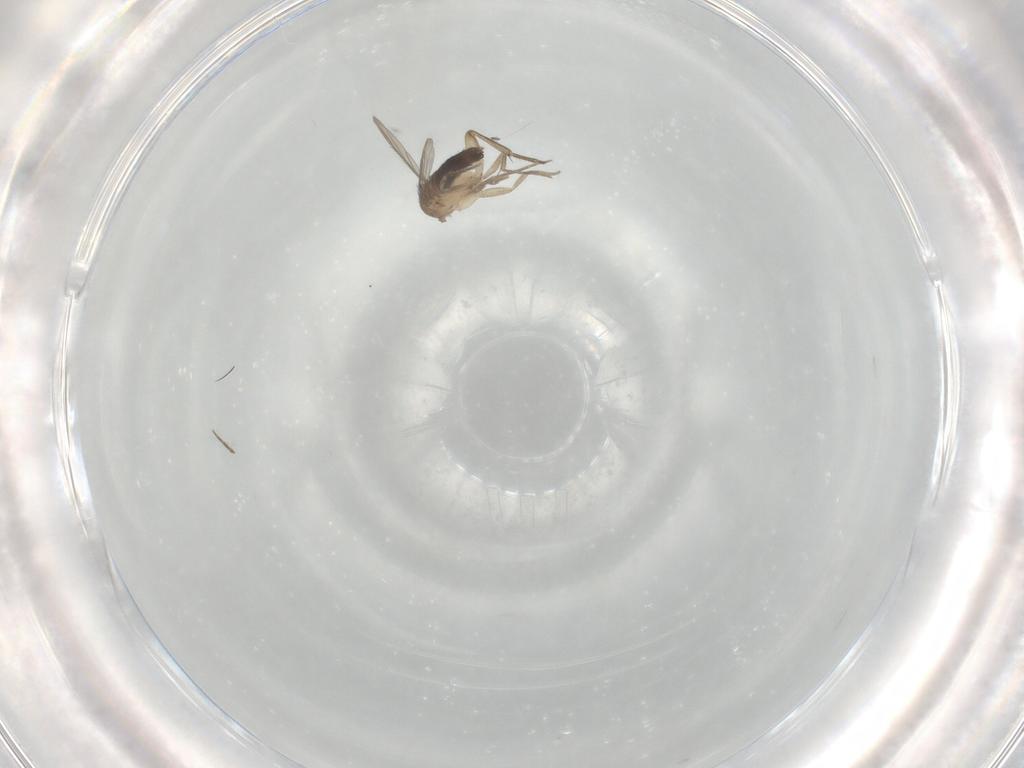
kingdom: Animalia
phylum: Arthropoda
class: Insecta
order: Diptera
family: Phoridae
